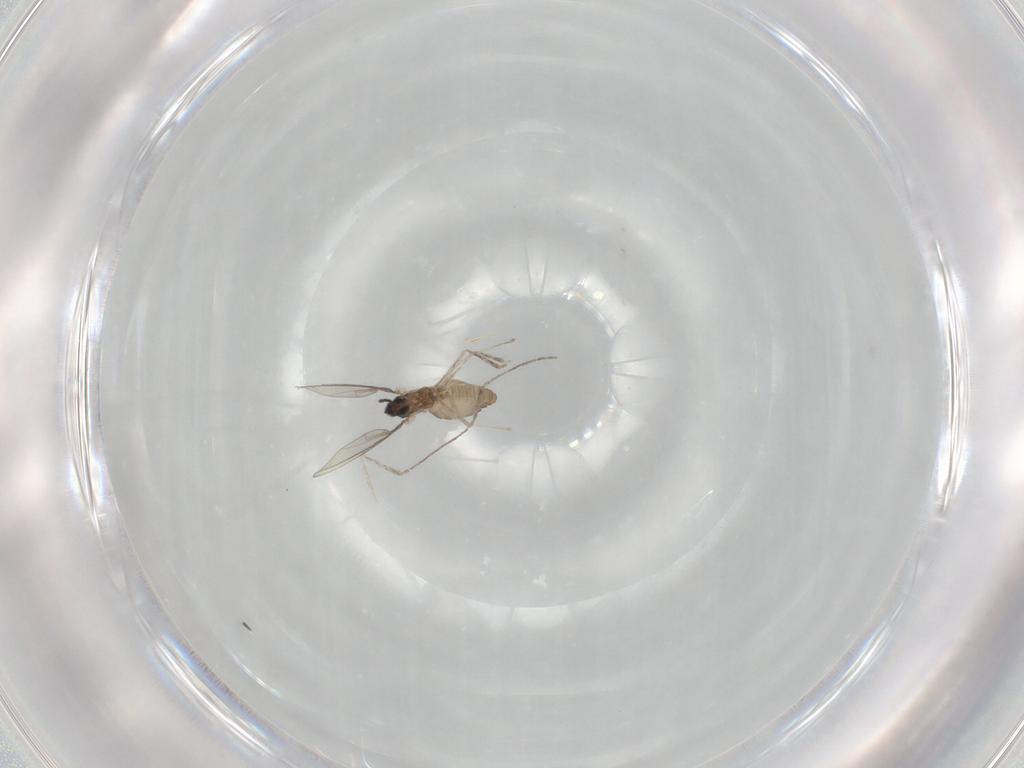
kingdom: Animalia
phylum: Arthropoda
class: Insecta
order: Diptera
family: Cecidomyiidae
